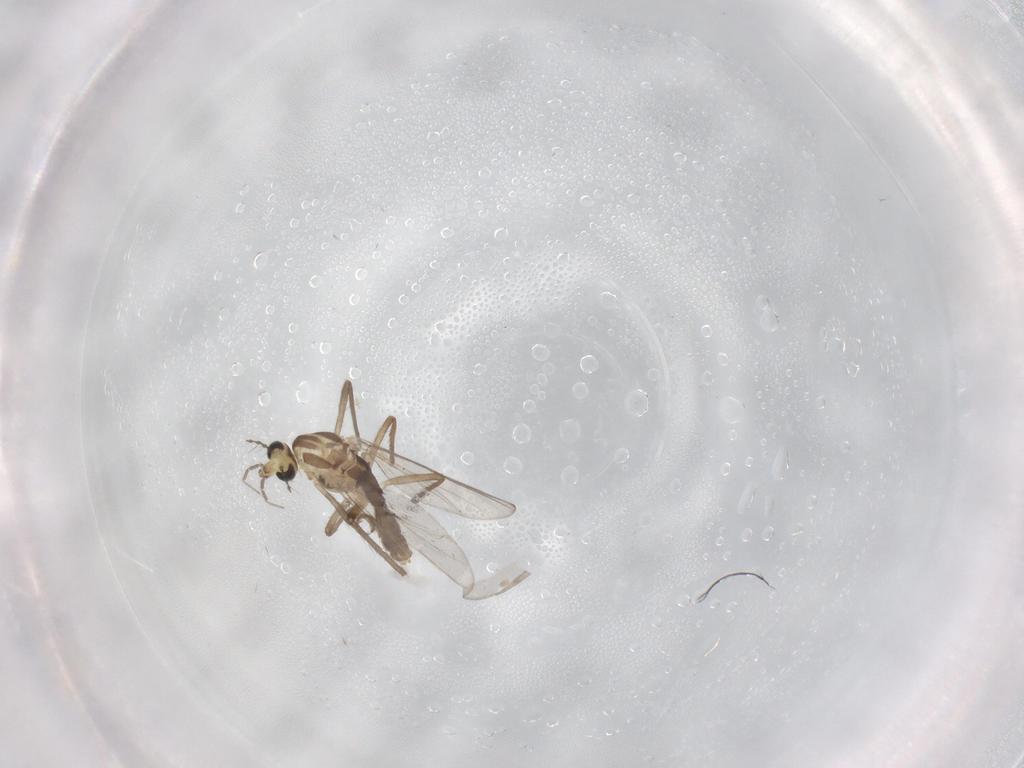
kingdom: Animalia
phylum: Arthropoda
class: Insecta
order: Diptera
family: Chironomidae
